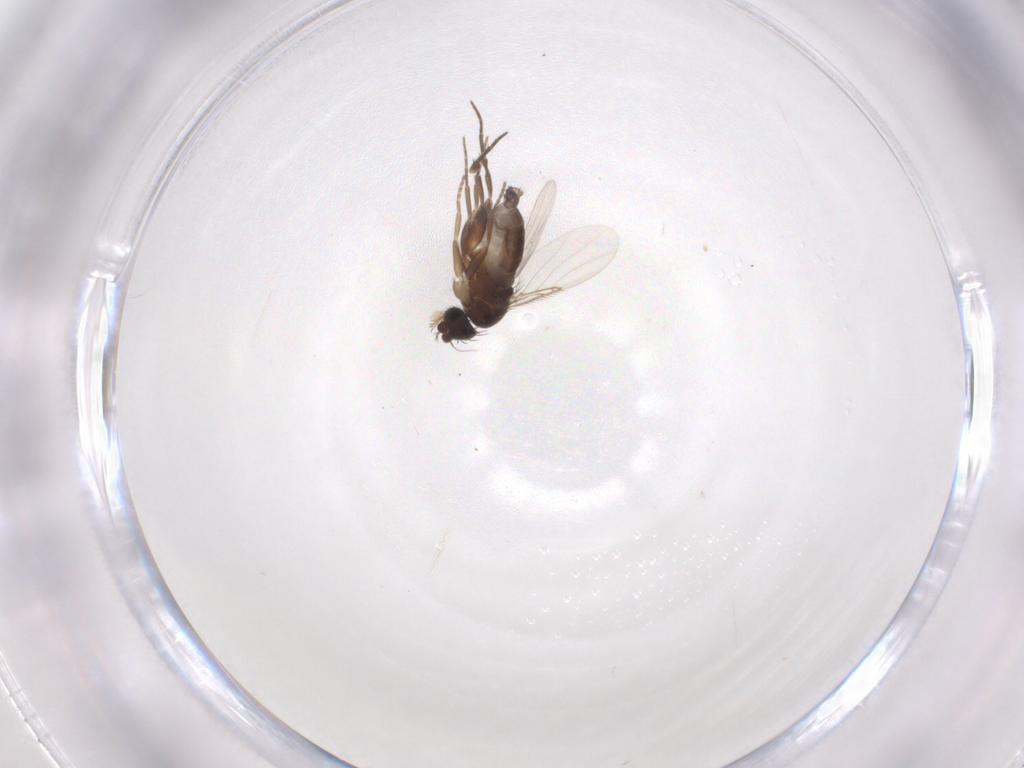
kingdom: Animalia
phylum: Arthropoda
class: Insecta
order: Diptera
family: Phoridae
